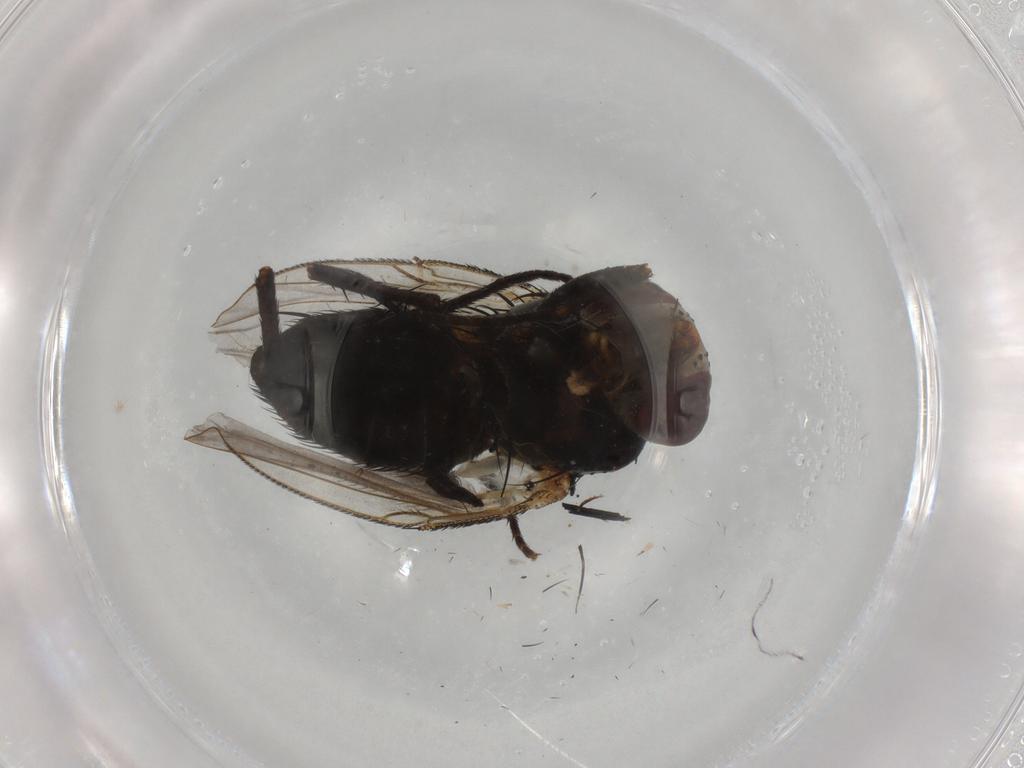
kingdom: Animalia
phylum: Arthropoda
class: Insecta
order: Diptera
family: Tachinidae
